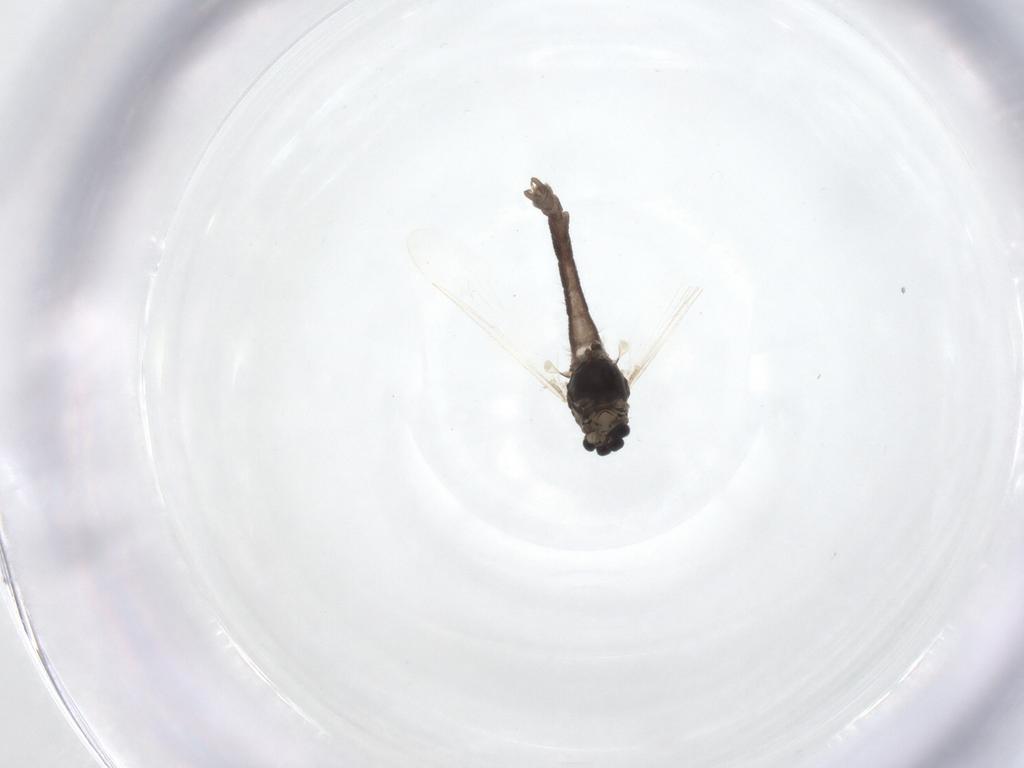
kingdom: Animalia
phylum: Arthropoda
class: Insecta
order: Diptera
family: Chironomidae
